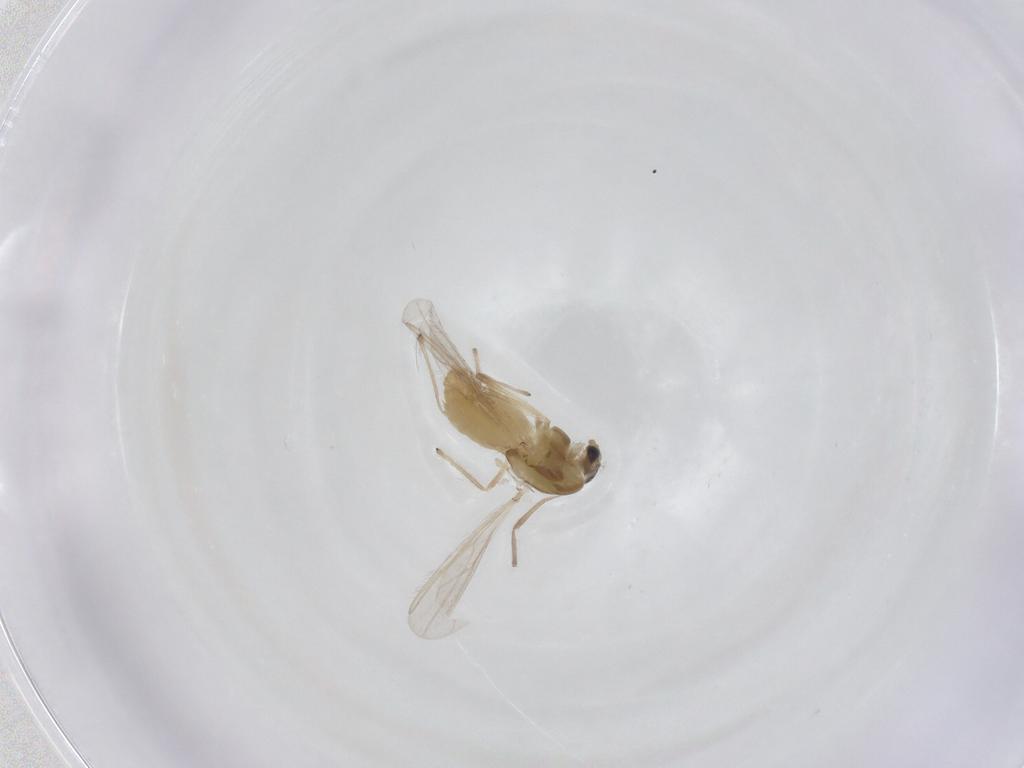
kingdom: Animalia
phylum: Arthropoda
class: Insecta
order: Diptera
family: Chironomidae
